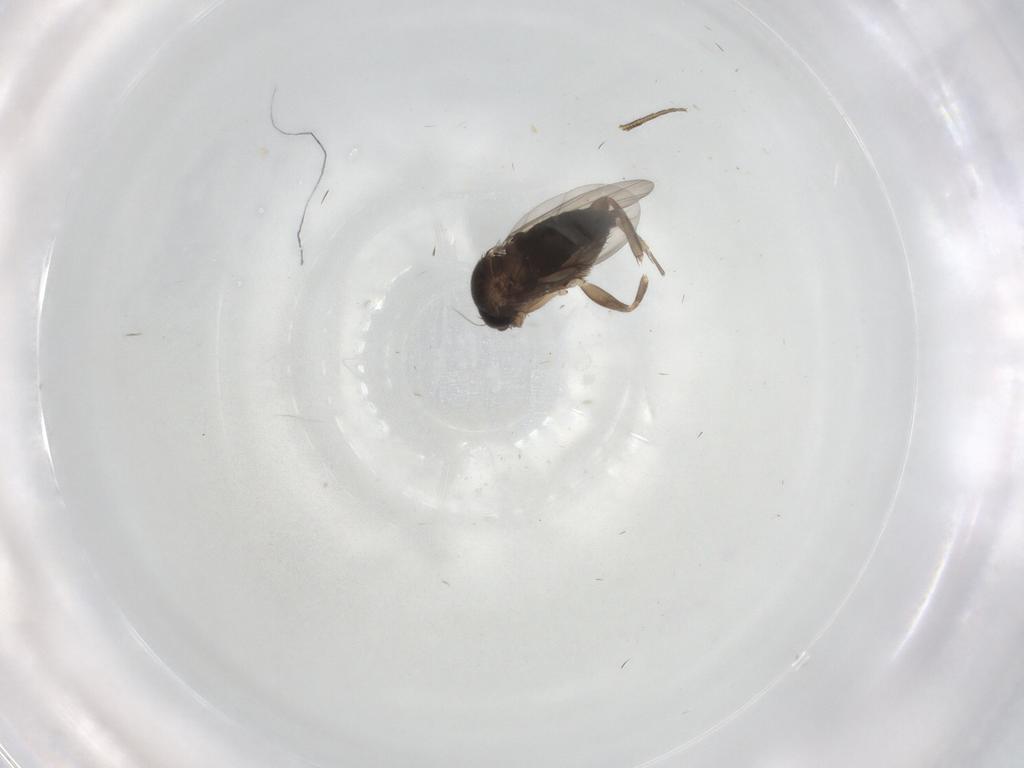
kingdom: Animalia
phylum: Arthropoda
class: Insecta
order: Diptera
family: Phoridae
